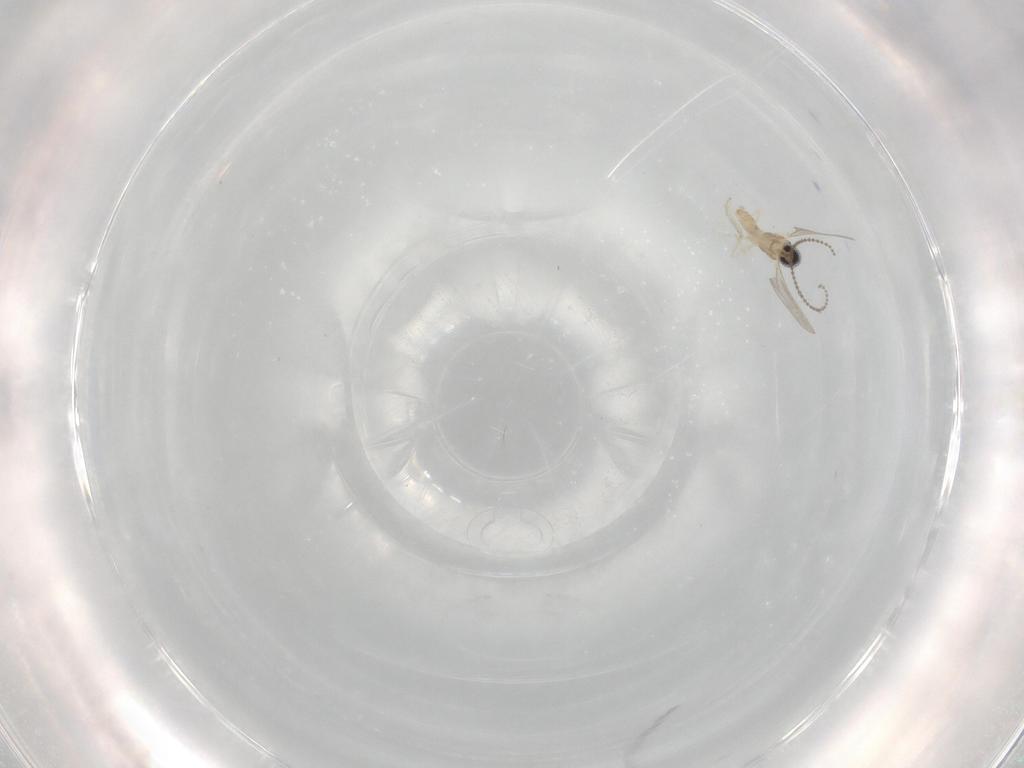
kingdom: Animalia
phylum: Arthropoda
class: Insecta
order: Diptera
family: Cecidomyiidae
